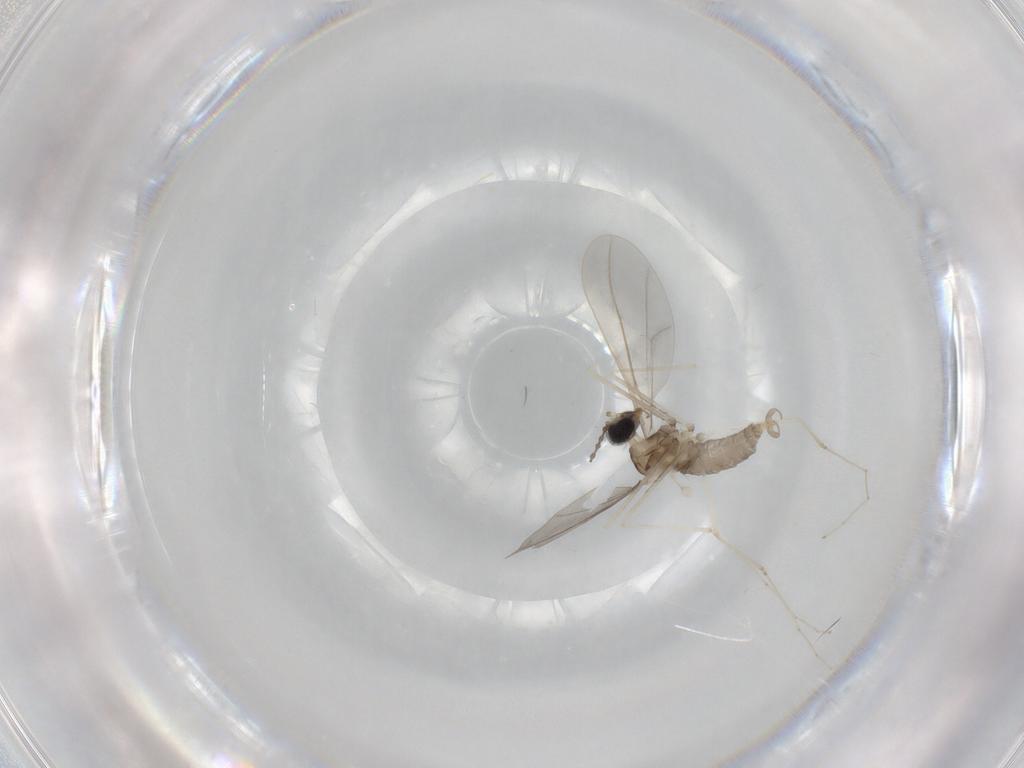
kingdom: Animalia
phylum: Arthropoda
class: Insecta
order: Diptera
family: Cecidomyiidae
